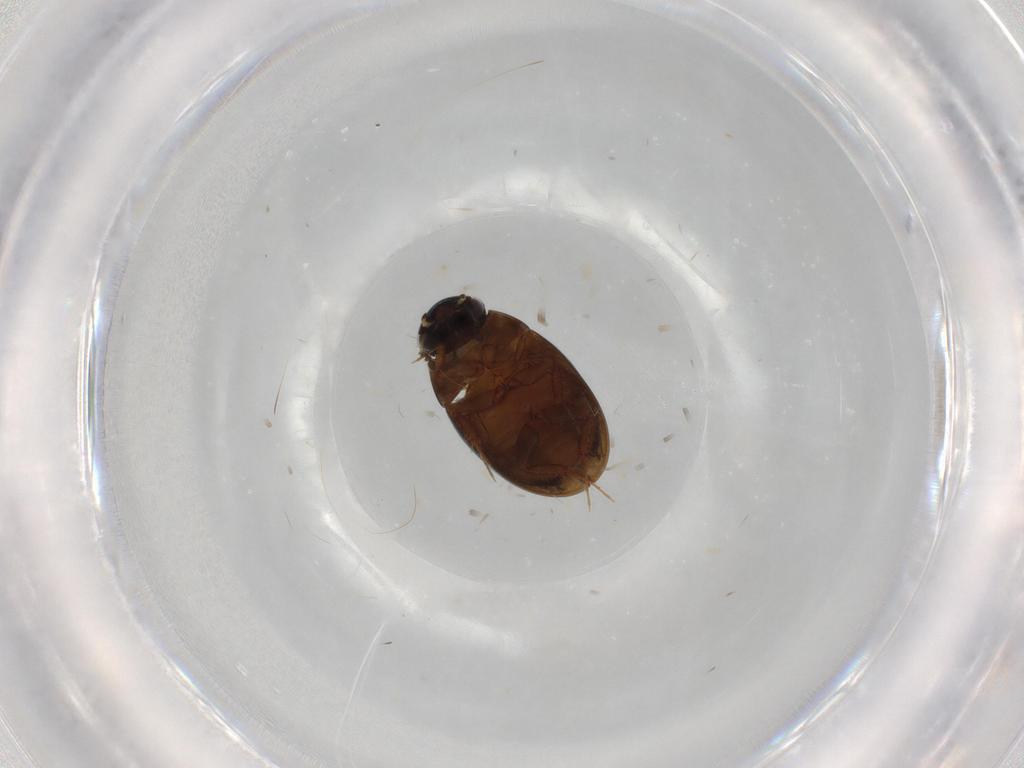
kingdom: Animalia
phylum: Arthropoda
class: Insecta
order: Coleoptera
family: Hydrophilidae
